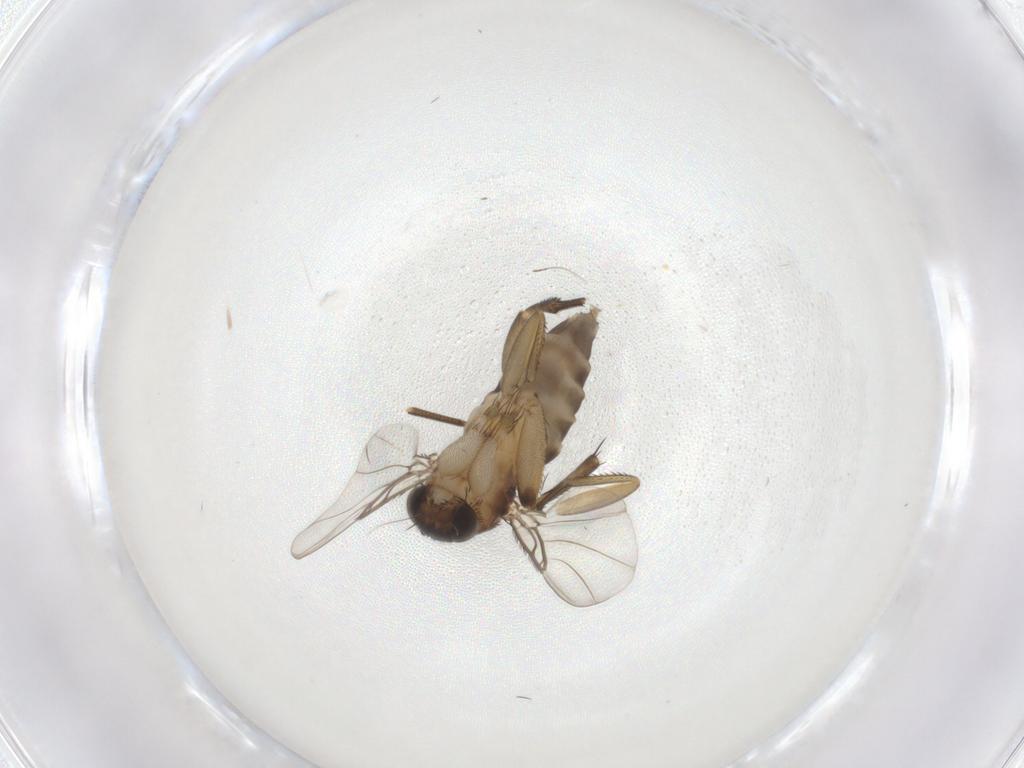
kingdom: Animalia
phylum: Arthropoda
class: Insecta
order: Diptera
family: Phoridae
